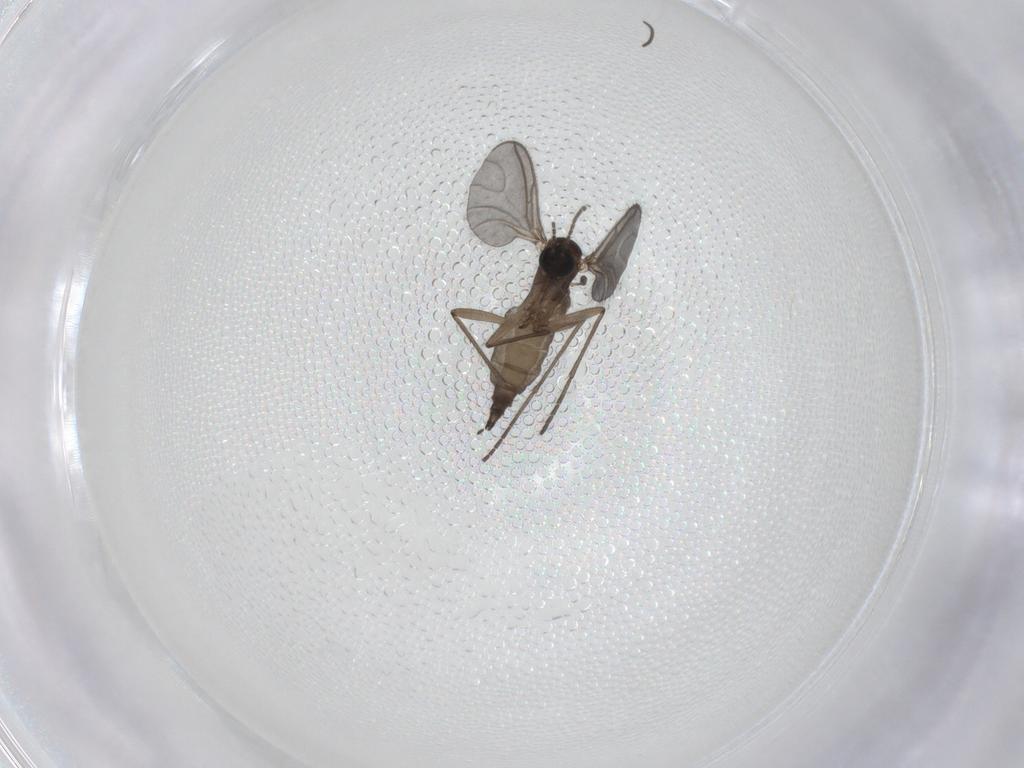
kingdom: Animalia
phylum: Arthropoda
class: Insecta
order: Diptera
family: Sciaridae
